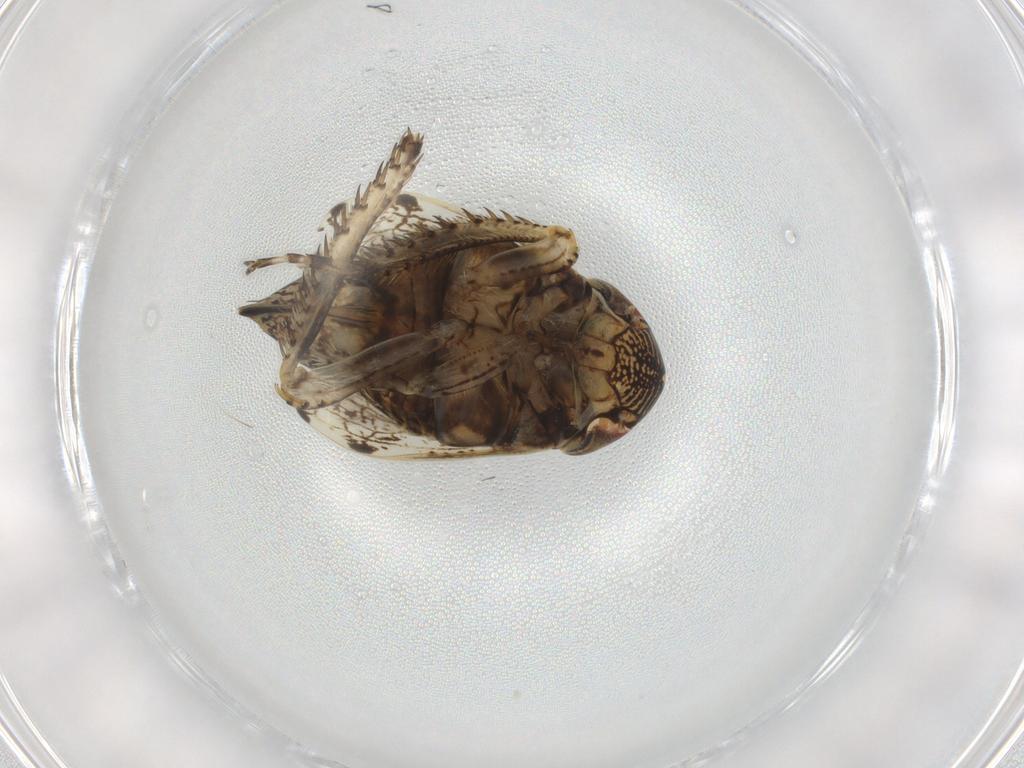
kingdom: Animalia
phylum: Arthropoda
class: Insecta
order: Hemiptera
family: Cicadellidae
